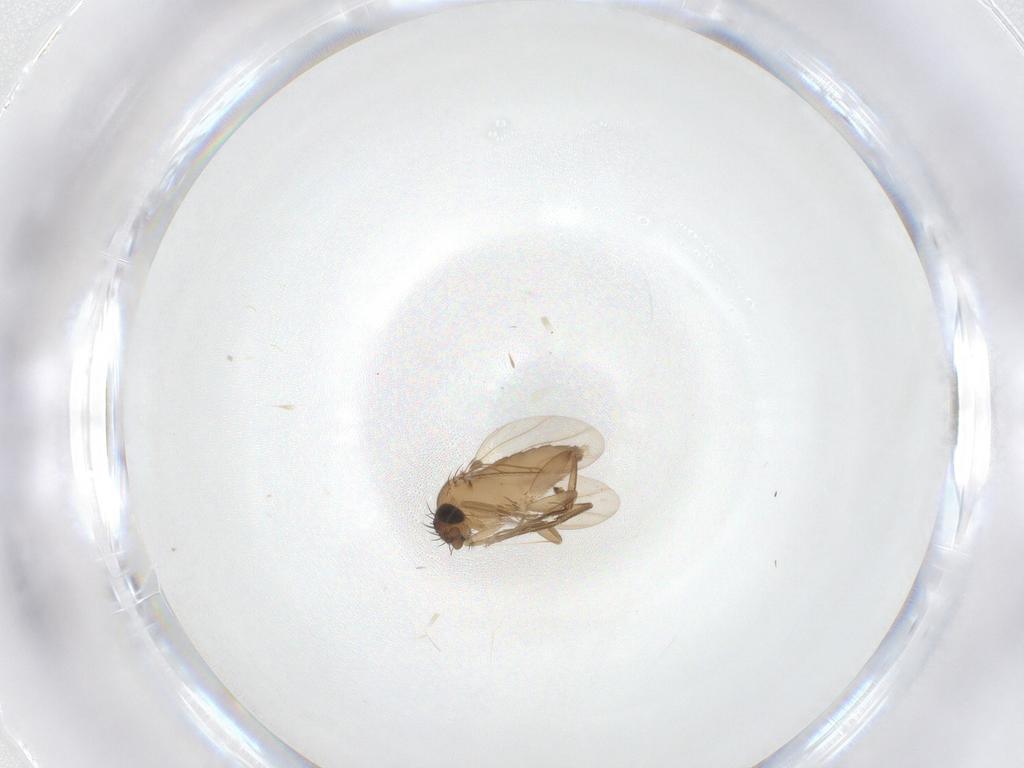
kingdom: Animalia
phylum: Arthropoda
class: Insecta
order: Diptera
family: Phoridae
